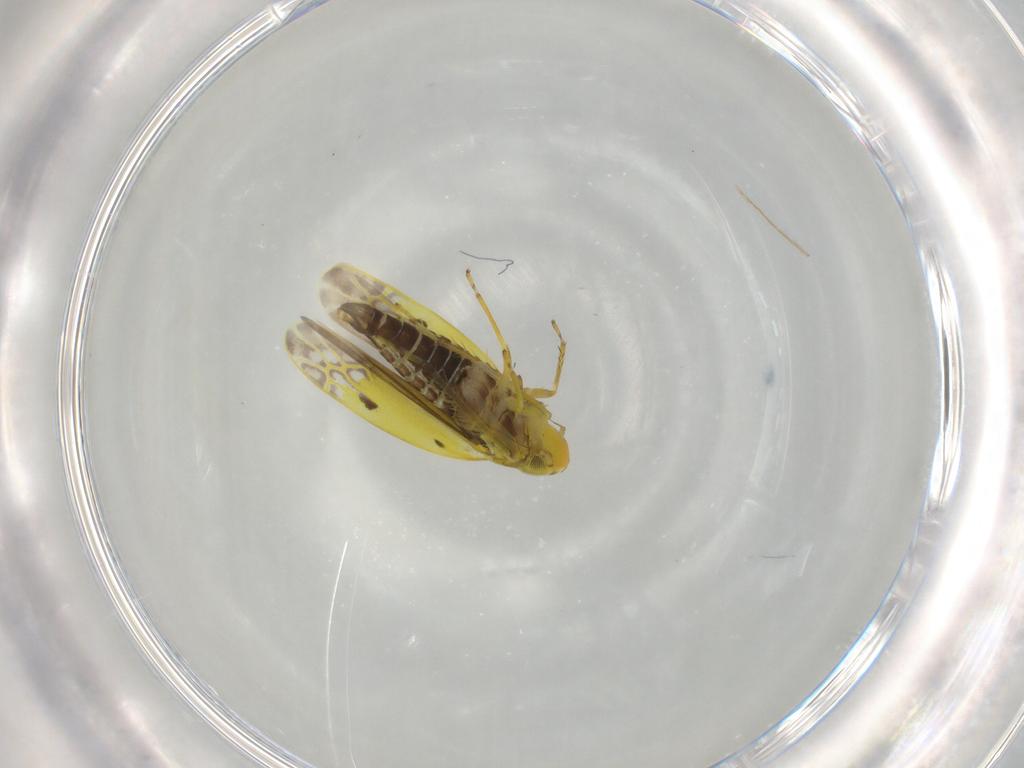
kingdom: Animalia
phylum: Arthropoda
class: Insecta
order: Hemiptera
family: Cicadellidae
